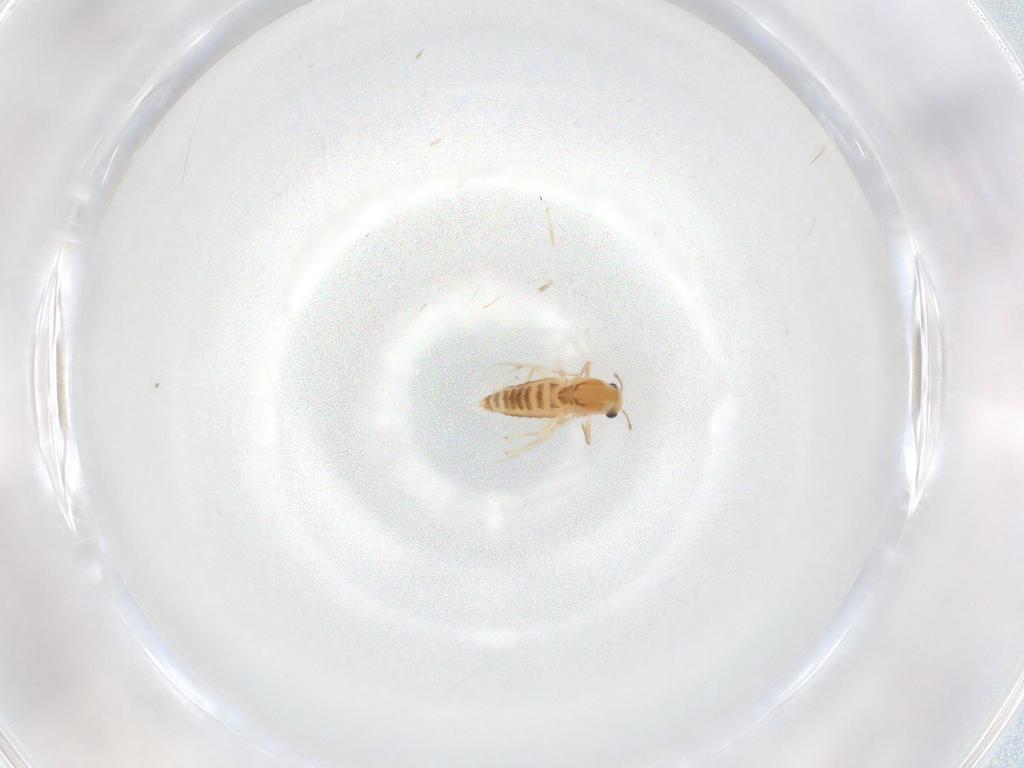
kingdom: Animalia
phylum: Arthropoda
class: Insecta
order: Diptera
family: Chironomidae
